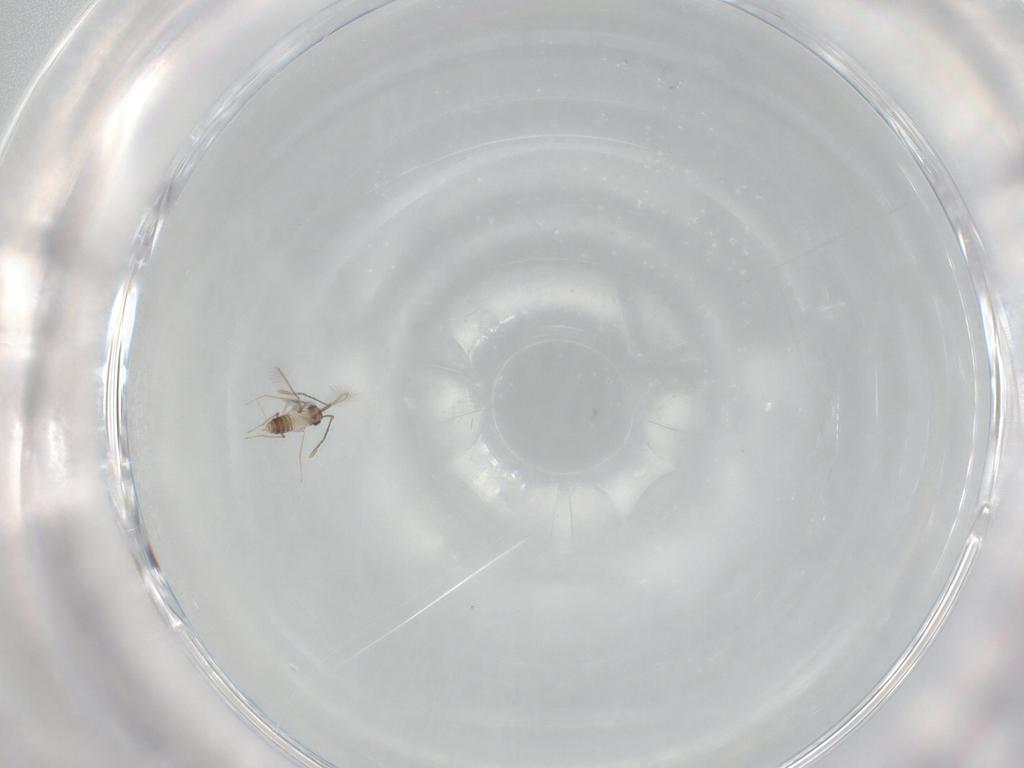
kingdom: Animalia
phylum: Arthropoda
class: Insecta
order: Hymenoptera
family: Mymaridae
